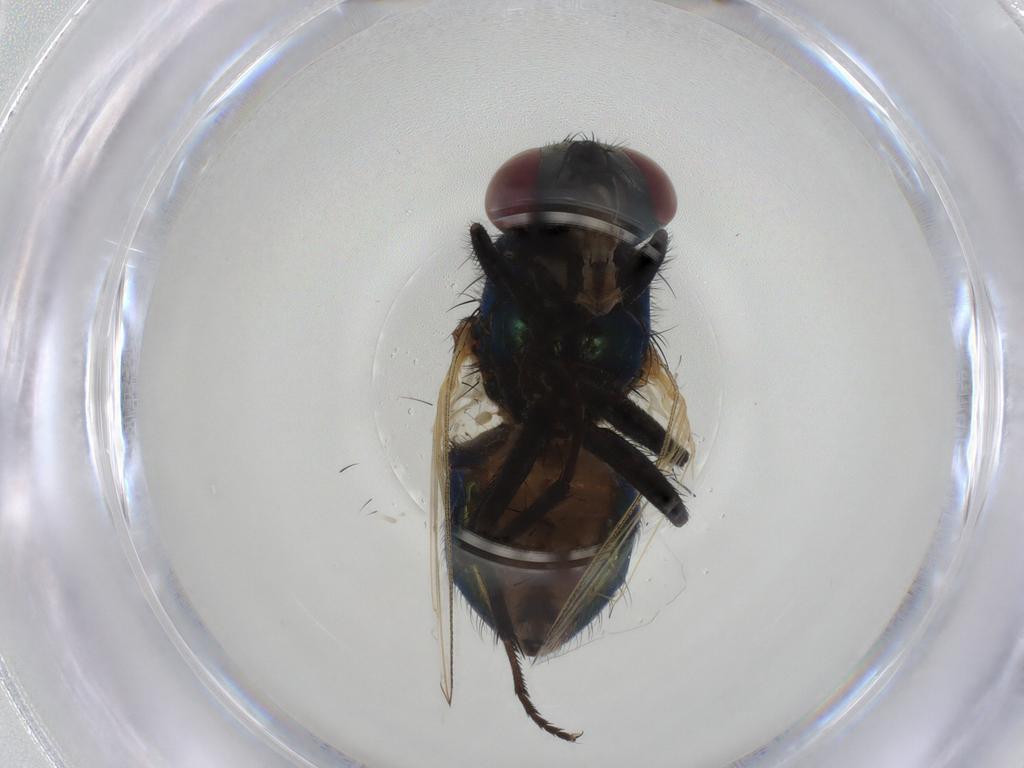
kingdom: Animalia
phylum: Arthropoda
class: Insecta
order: Diptera
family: Muscidae
